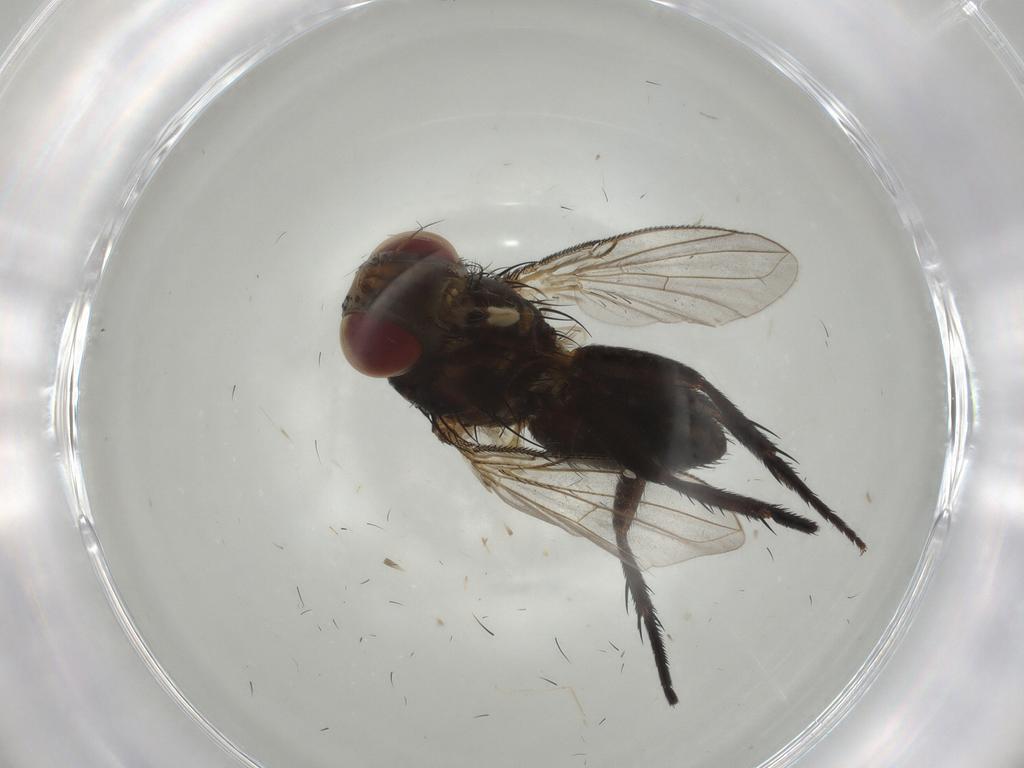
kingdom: Animalia
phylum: Arthropoda
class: Insecta
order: Diptera
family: Tachinidae
